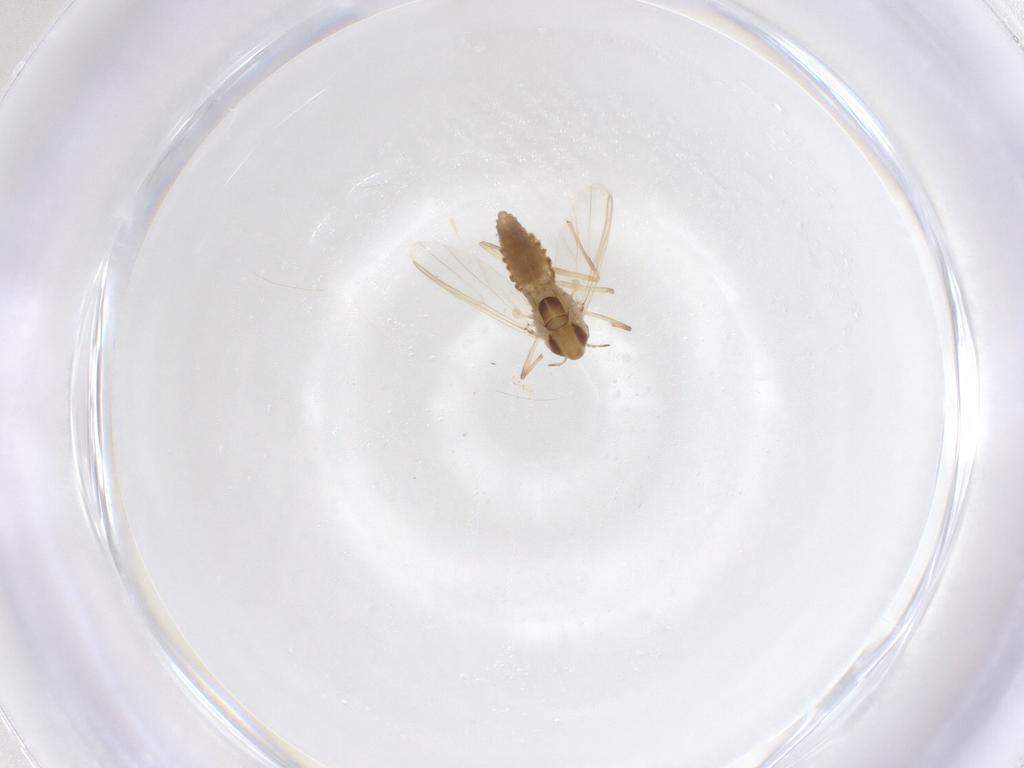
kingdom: Animalia
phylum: Arthropoda
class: Insecta
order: Diptera
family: Chironomidae
